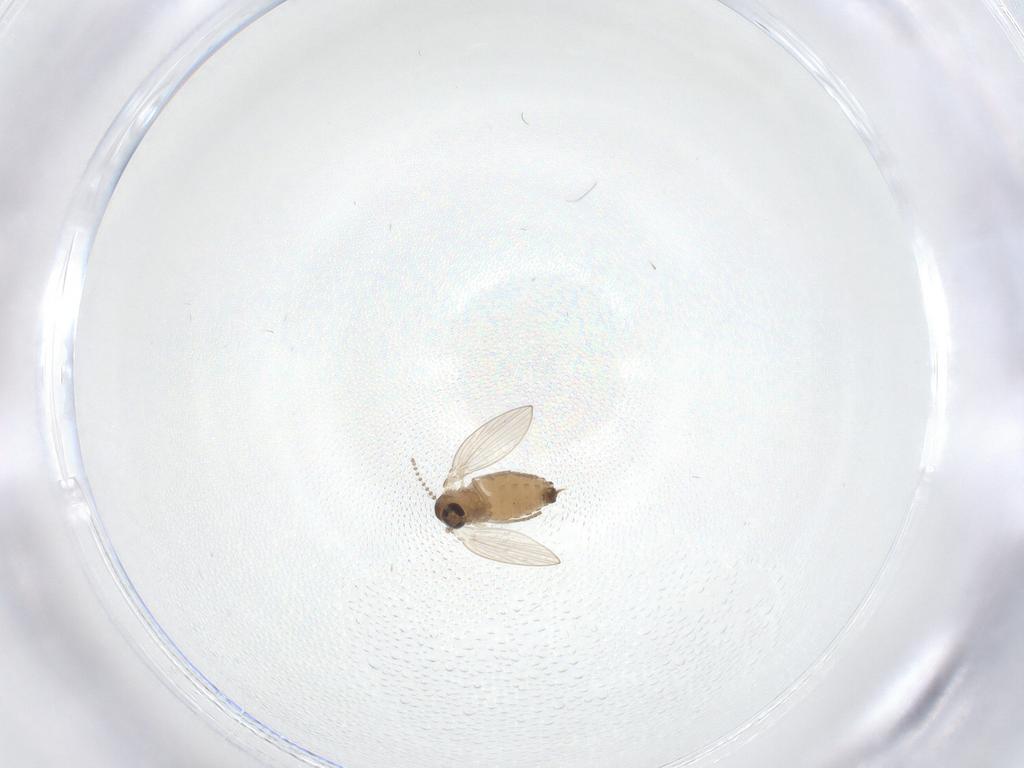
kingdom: Animalia
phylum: Arthropoda
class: Insecta
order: Diptera
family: Psychodidae
